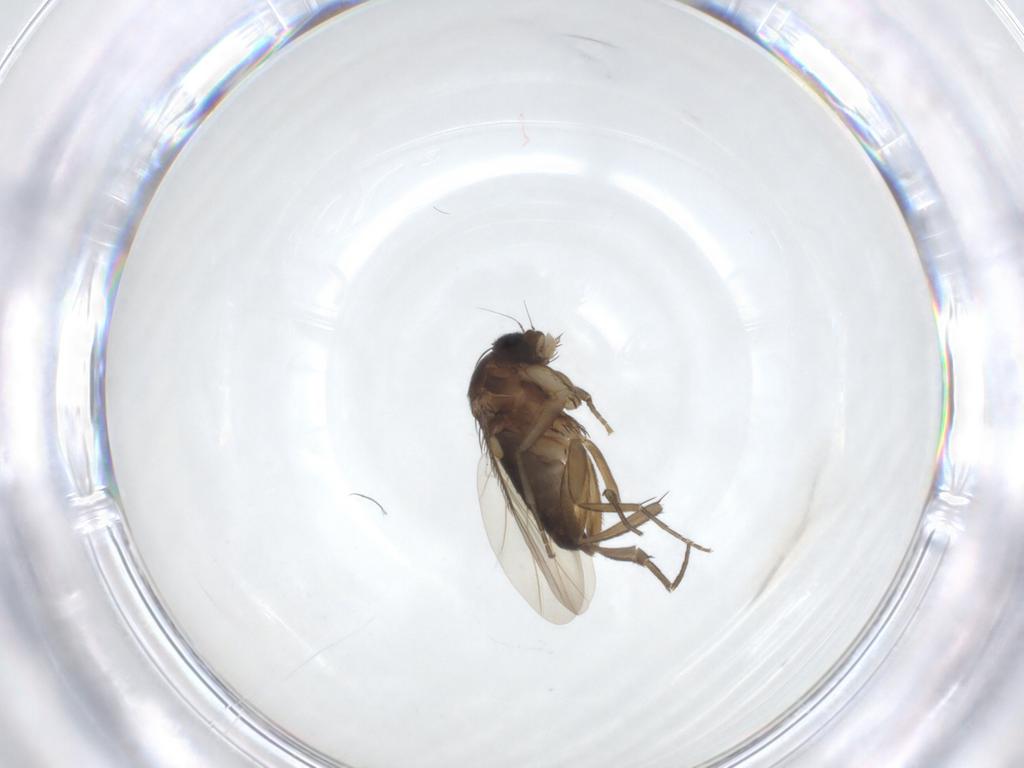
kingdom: Animalia
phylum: Arthropoda
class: Insecta
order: Diptera
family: Phoridae
